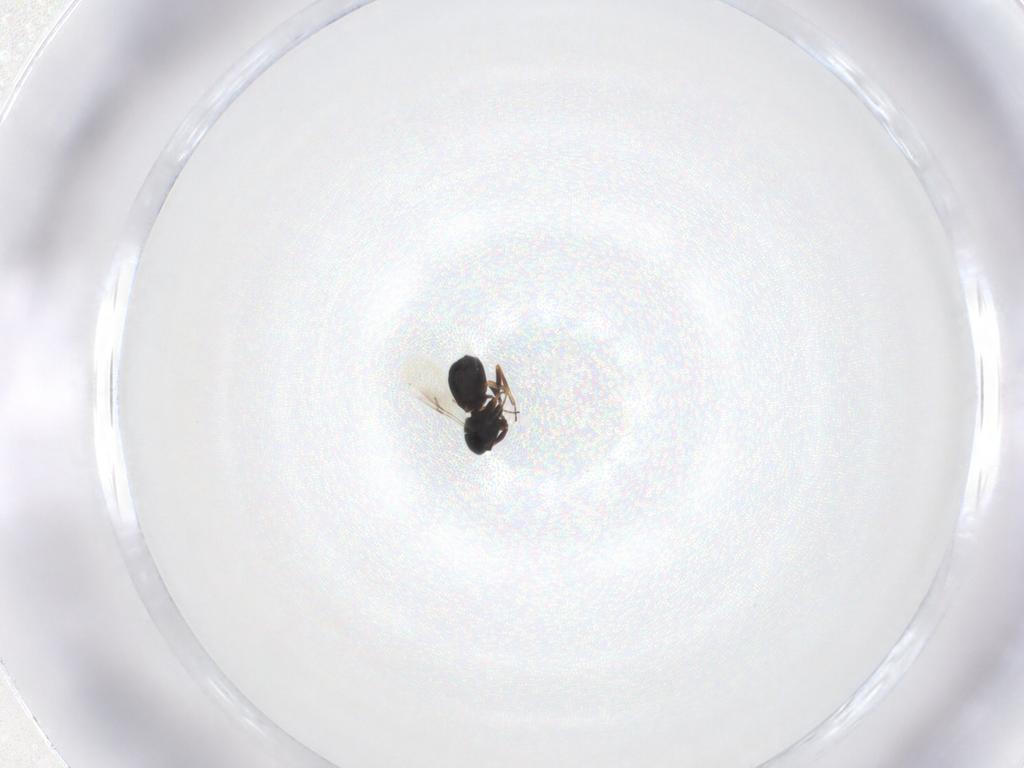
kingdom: Animalia
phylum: Arthropoda
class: Insecta
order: Hymenoptera
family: Scelionidae
